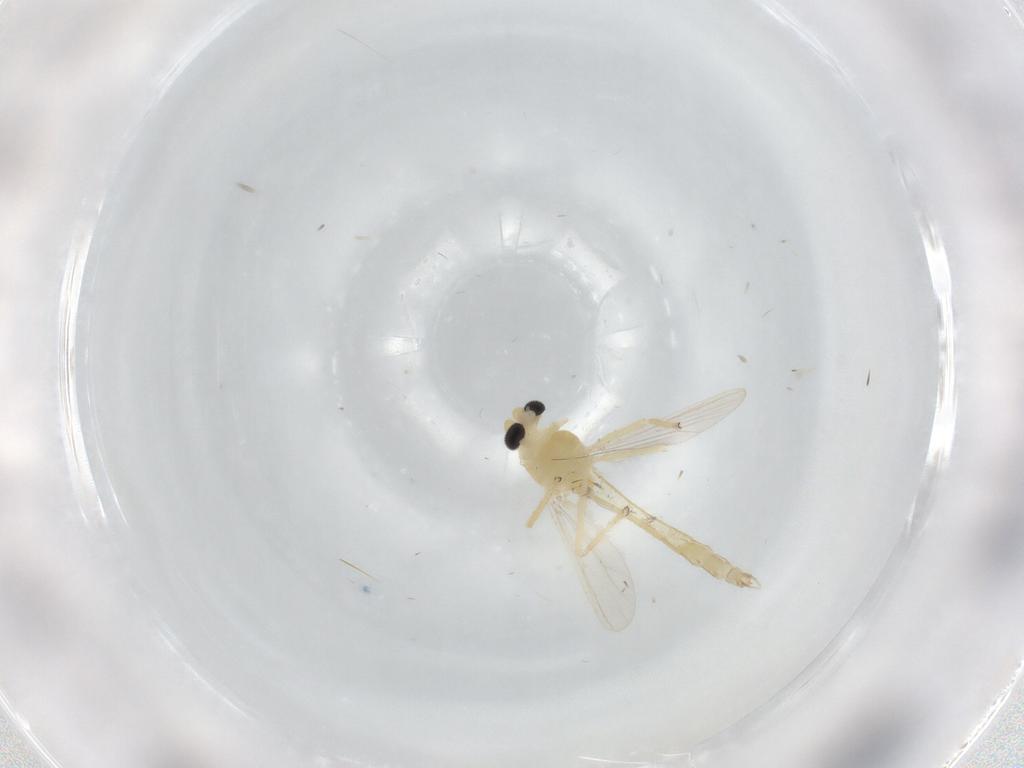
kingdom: Animalia
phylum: Arthropoda
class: Insecta
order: Diptera
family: Chironomidae
